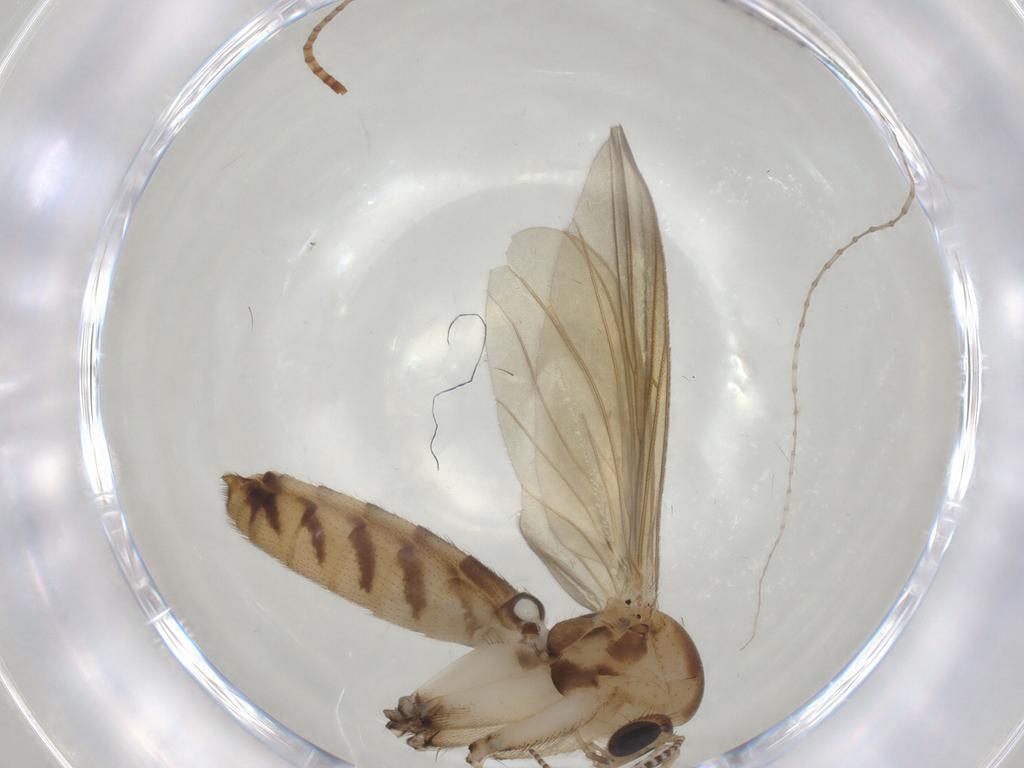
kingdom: Animalia
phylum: Arthropoda
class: Insecta
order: Diptera
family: Mycetophilidae
